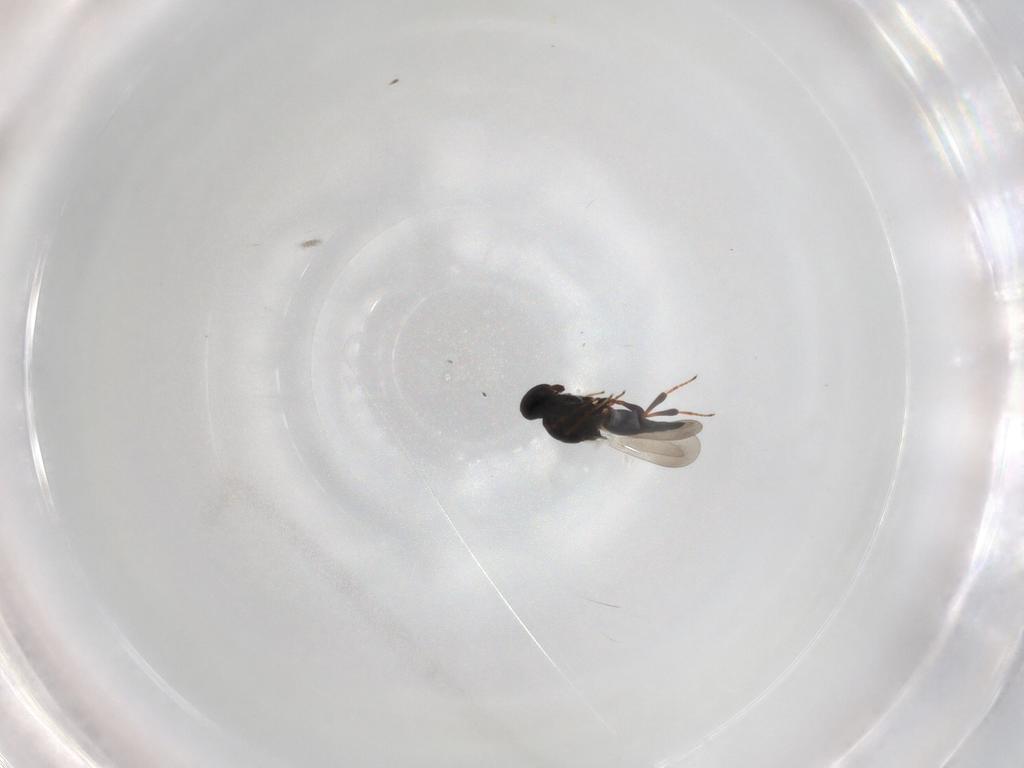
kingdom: Animalia
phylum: Arthropoda
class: Insecta
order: Hymenoptera
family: Platygastridae
